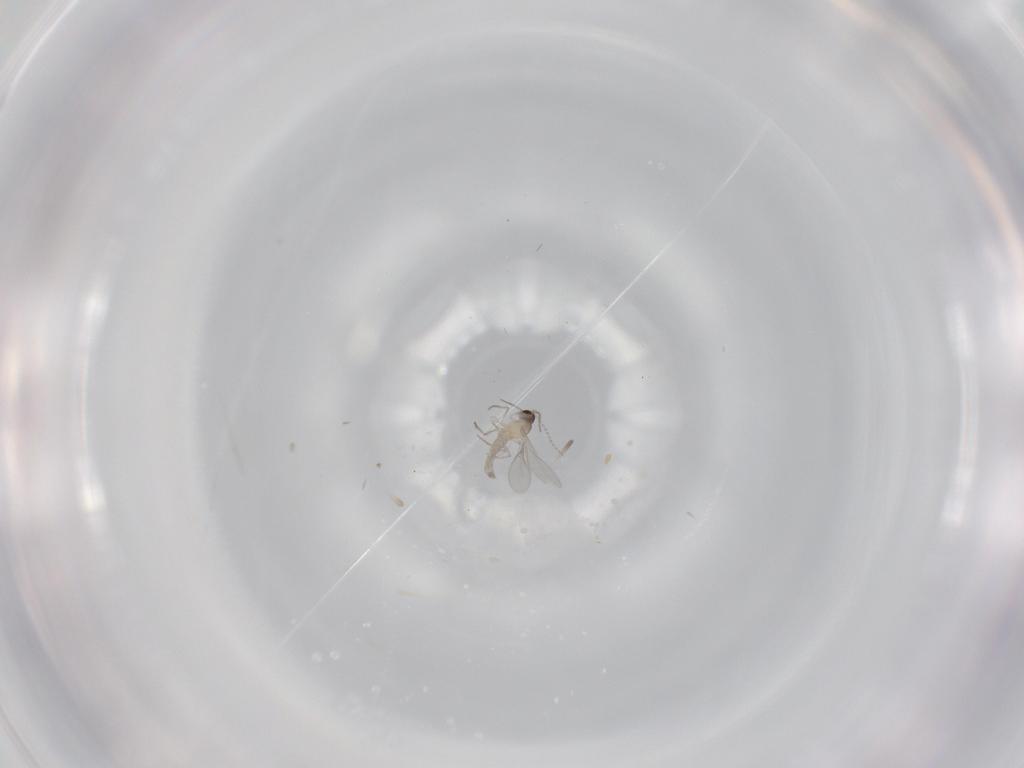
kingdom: Animalia
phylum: Arthropoda
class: Insecta
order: Diptera
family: Cecidomyiidae
